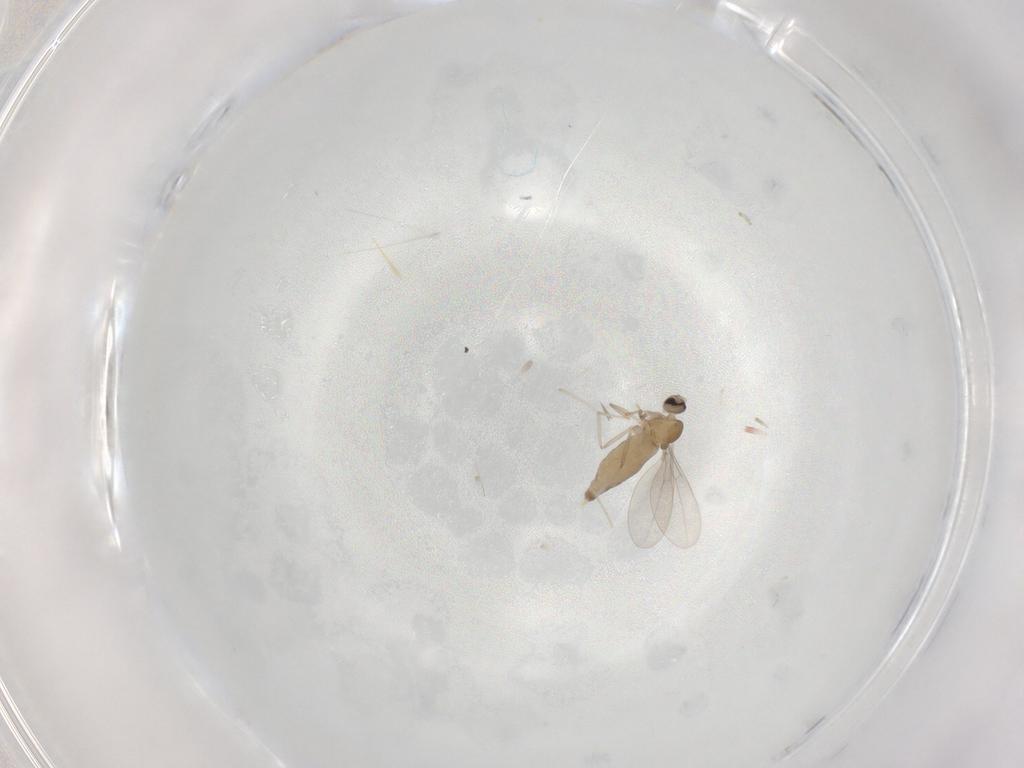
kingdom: Animalia
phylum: Arthropoda
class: Insecta
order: Diptera
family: Cecidomyiidae
